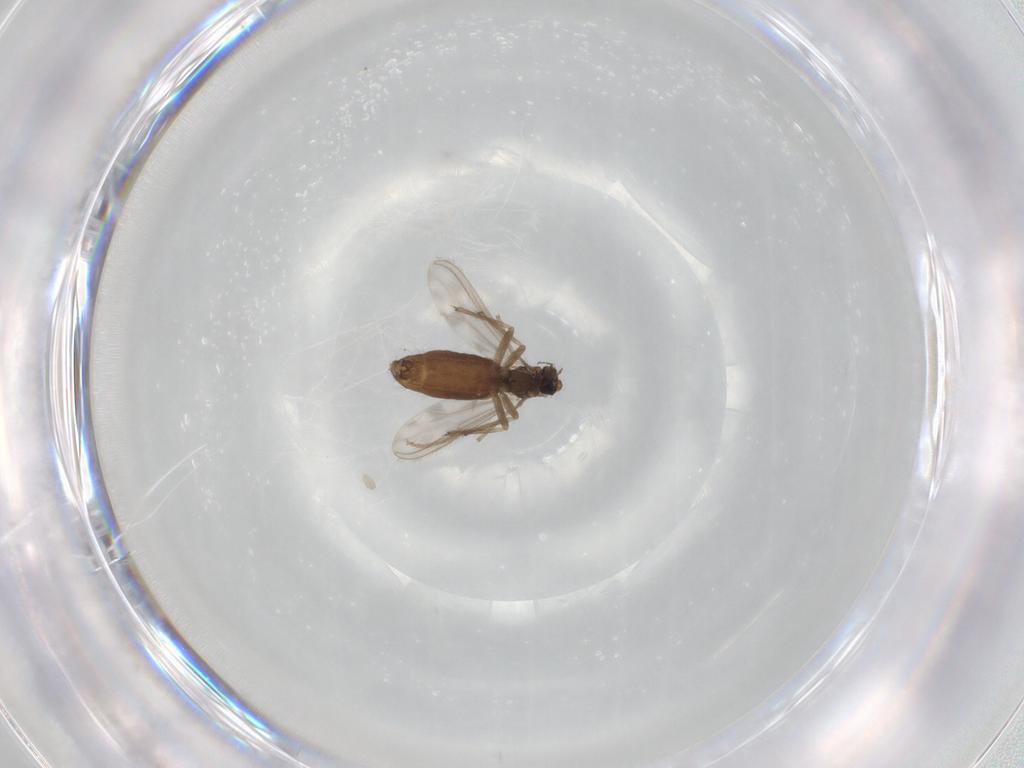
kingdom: Animalia
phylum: Arthropoda
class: Insecta
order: Diptera
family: Chironomidae
